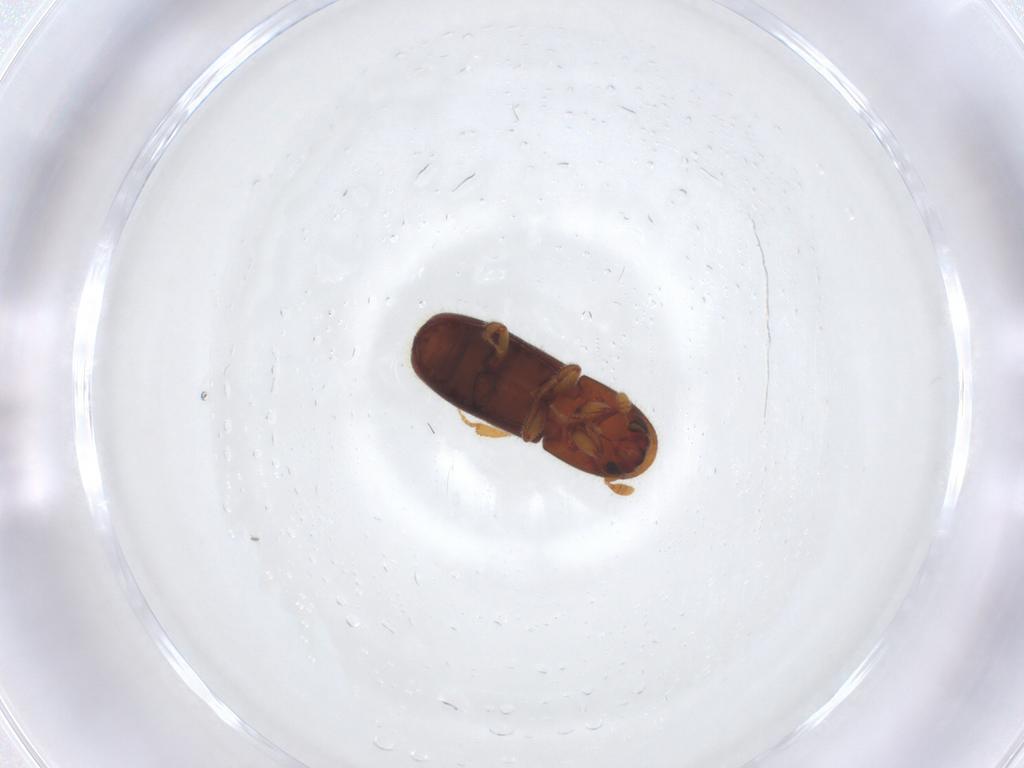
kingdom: Animalia
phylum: Arthropoda
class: Insecta
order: Coleoptera
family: Curculionidae
